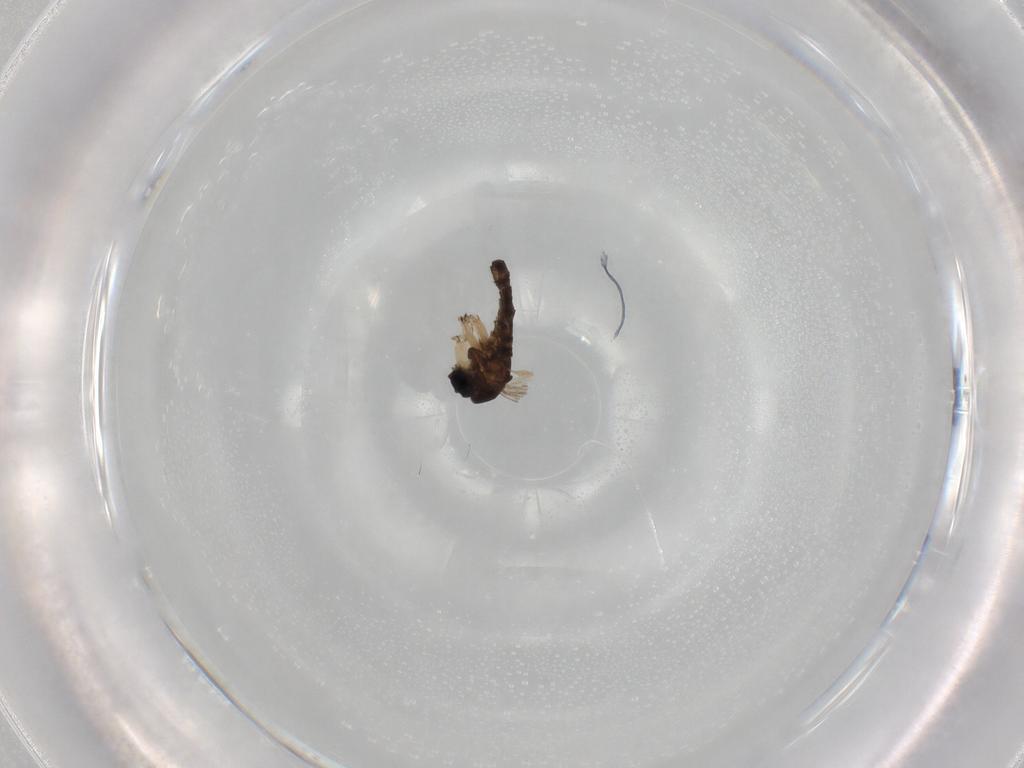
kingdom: Animalia
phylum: Arthropoda
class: Insecta
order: Diptera
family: Sciaridae
